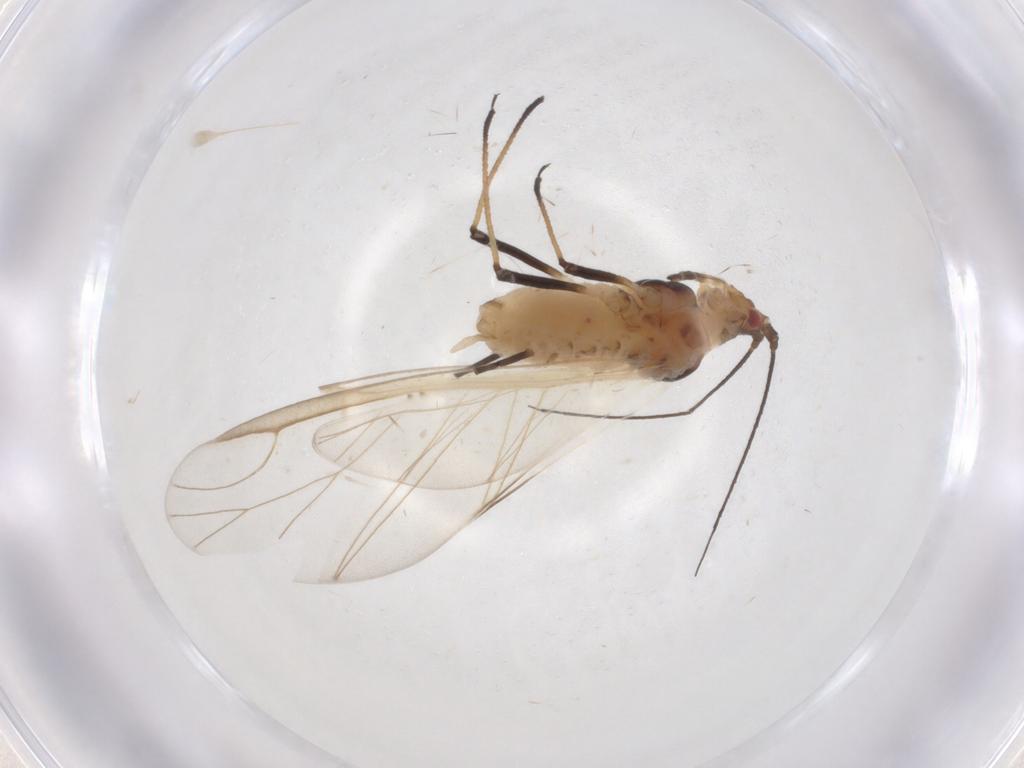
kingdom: Animalia
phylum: Arthropoda
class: Insecta
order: Hemiptera
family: Aphididae
